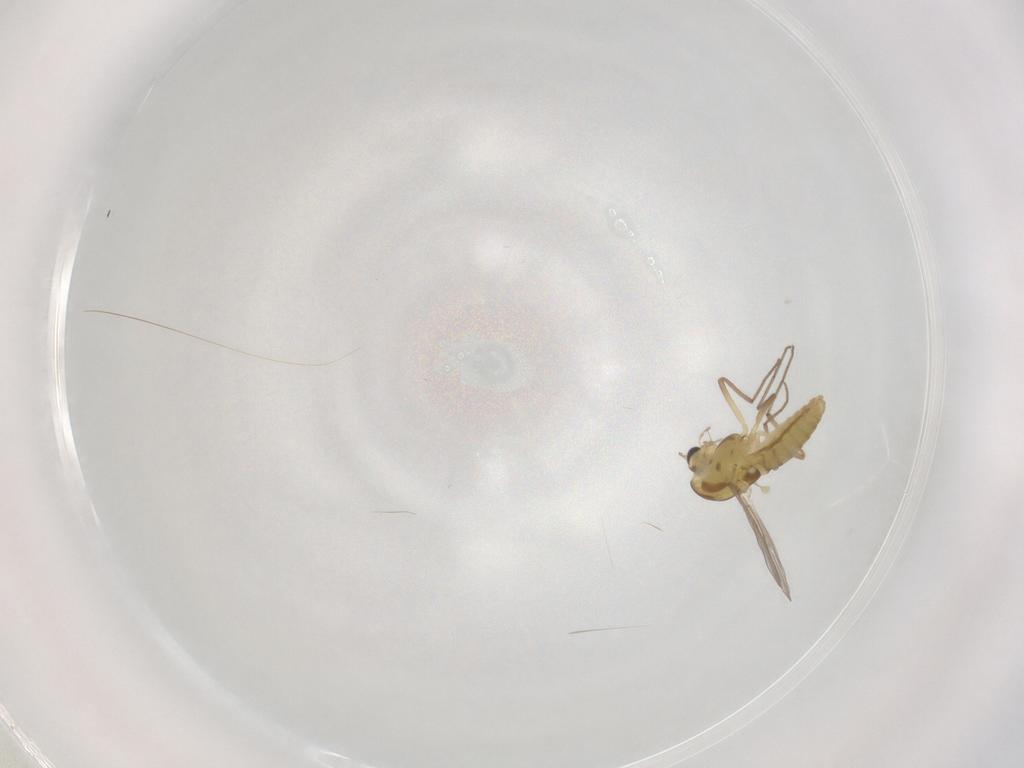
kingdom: Animalia
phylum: Arthropoda
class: Insecta
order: Diptera
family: Chironomidae
